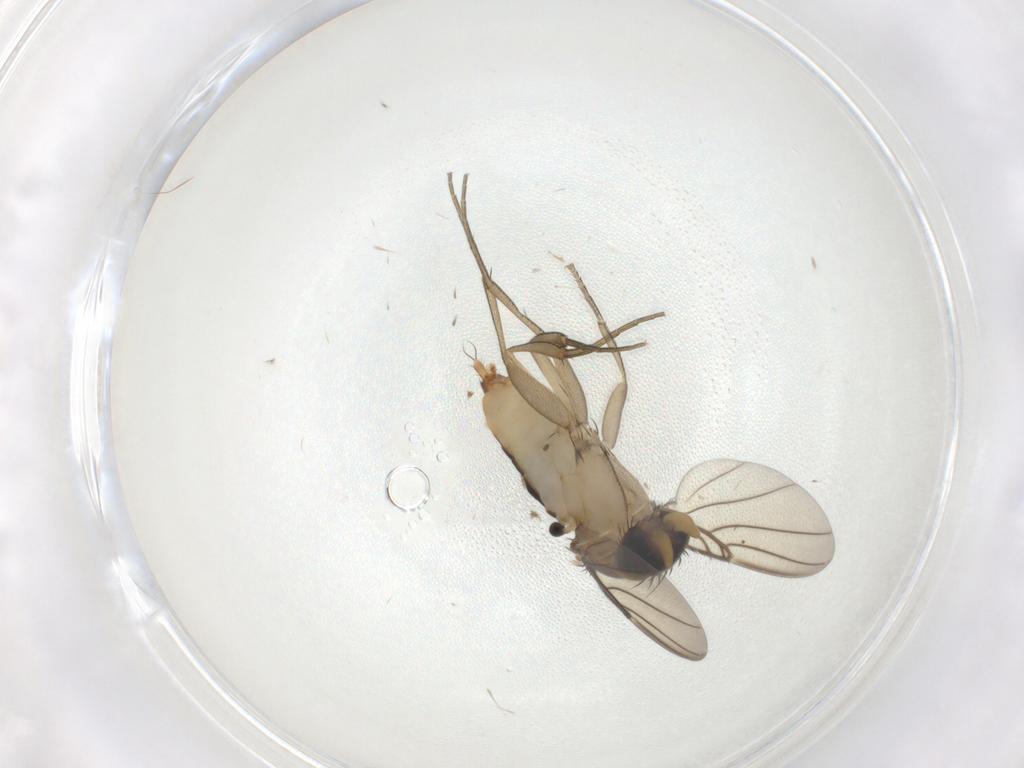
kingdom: Animalia
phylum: Arthropoda
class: Insecta
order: Diptera
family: Phoridae
